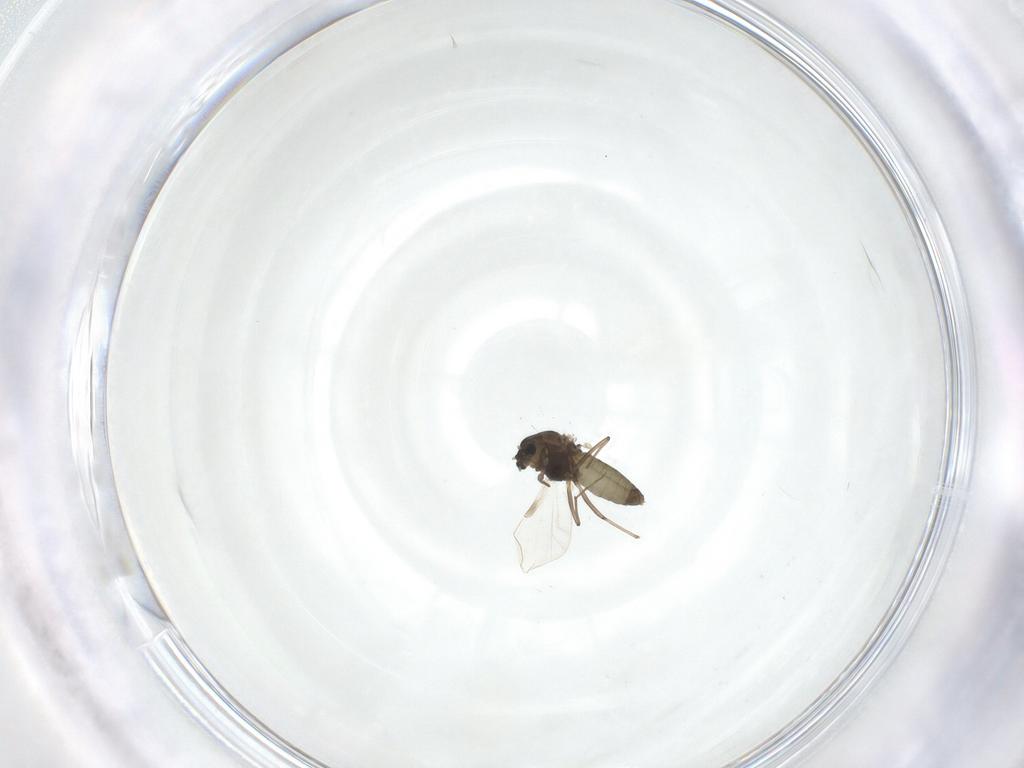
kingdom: Animalia
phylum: Arthropoda
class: Insecta
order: Diptera
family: Chironomidae
